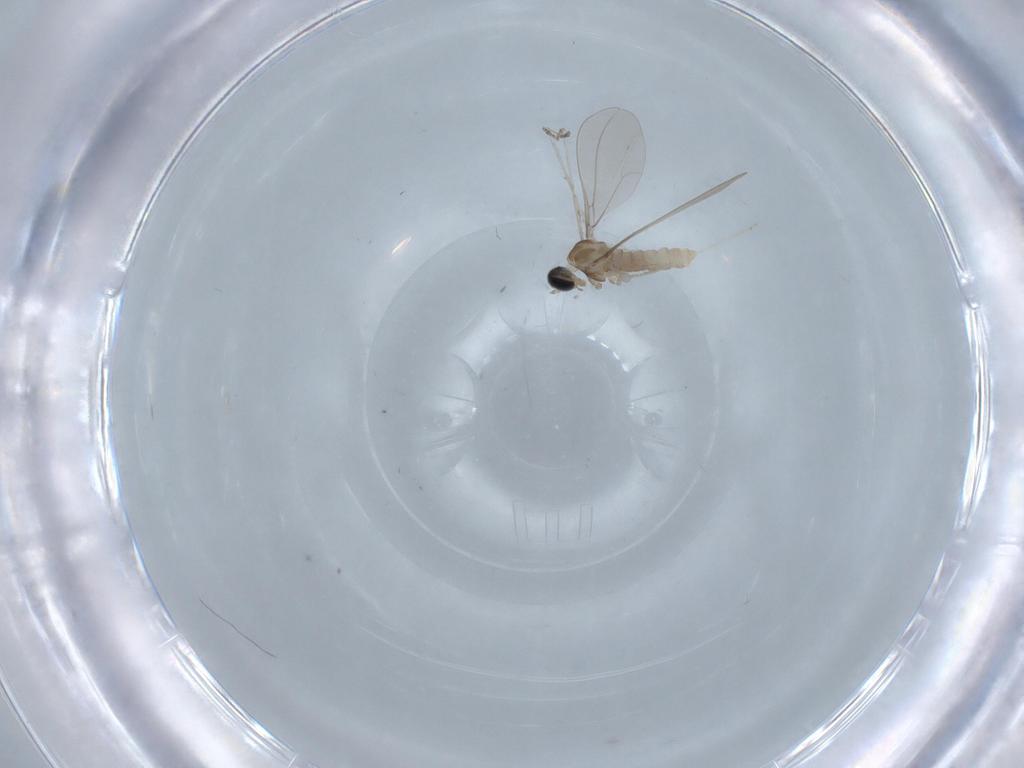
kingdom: Animalia
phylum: Arthropoda
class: Insecta
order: Diptera
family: Cecidomyiidae
